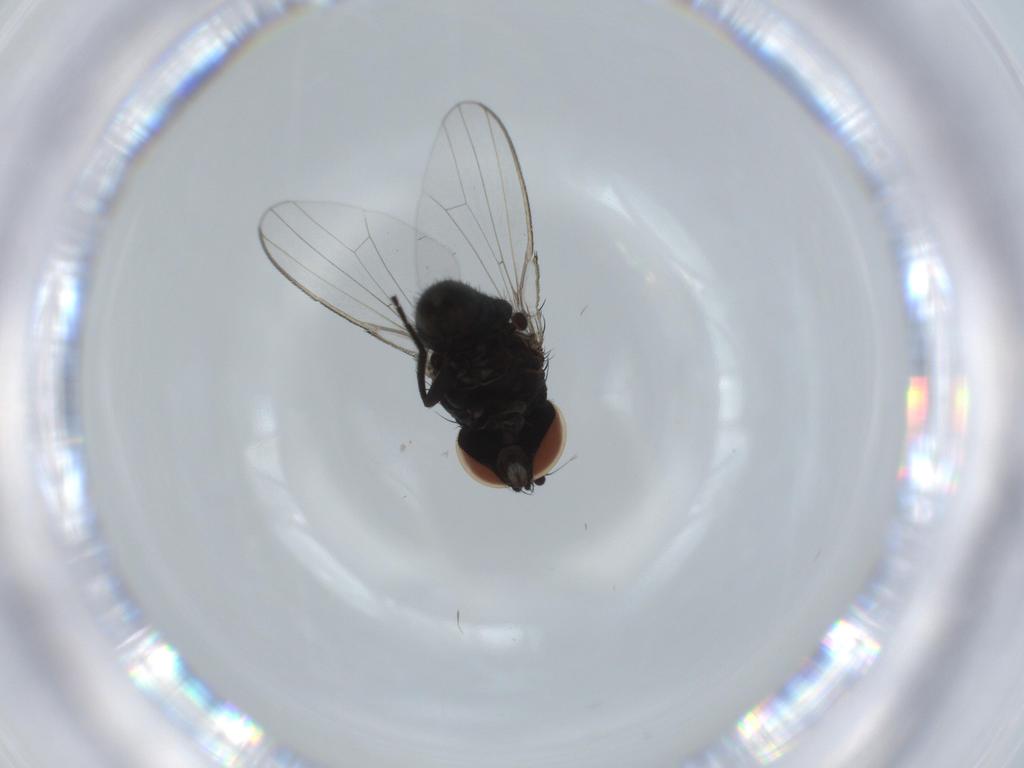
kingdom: Animalia
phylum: Arthropoda
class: Insecta
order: Diptera
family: Milichiidae
